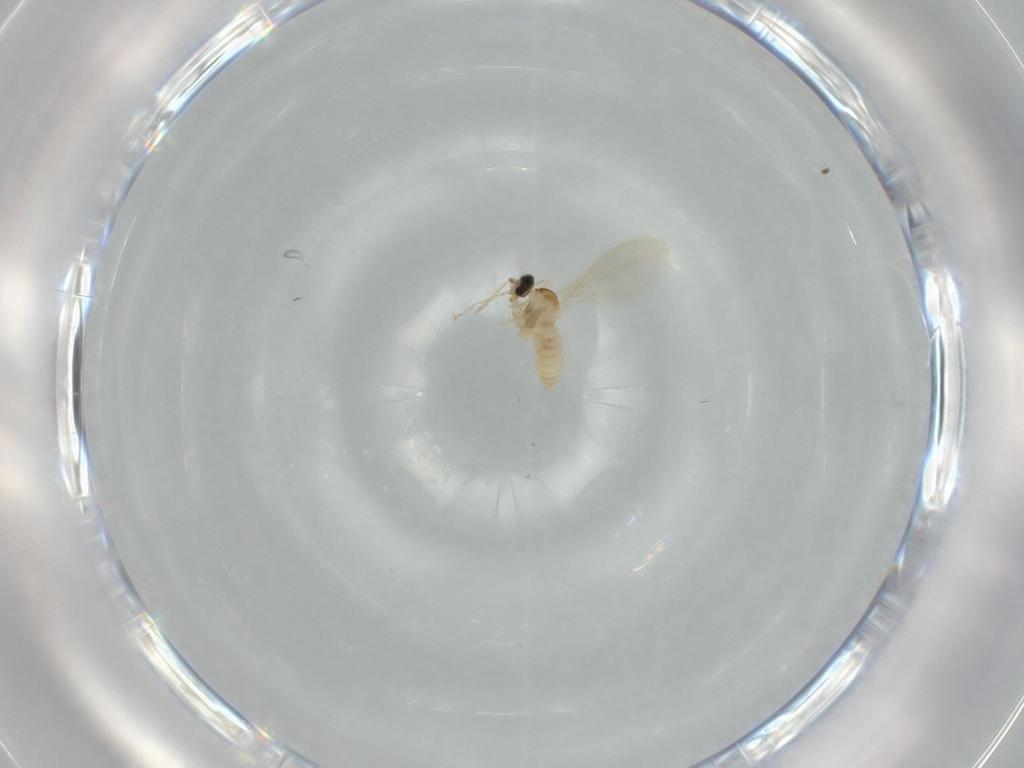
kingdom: Animalia
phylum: Arthropoda
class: Insecta
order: Diptera
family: Cecidomyiidae
